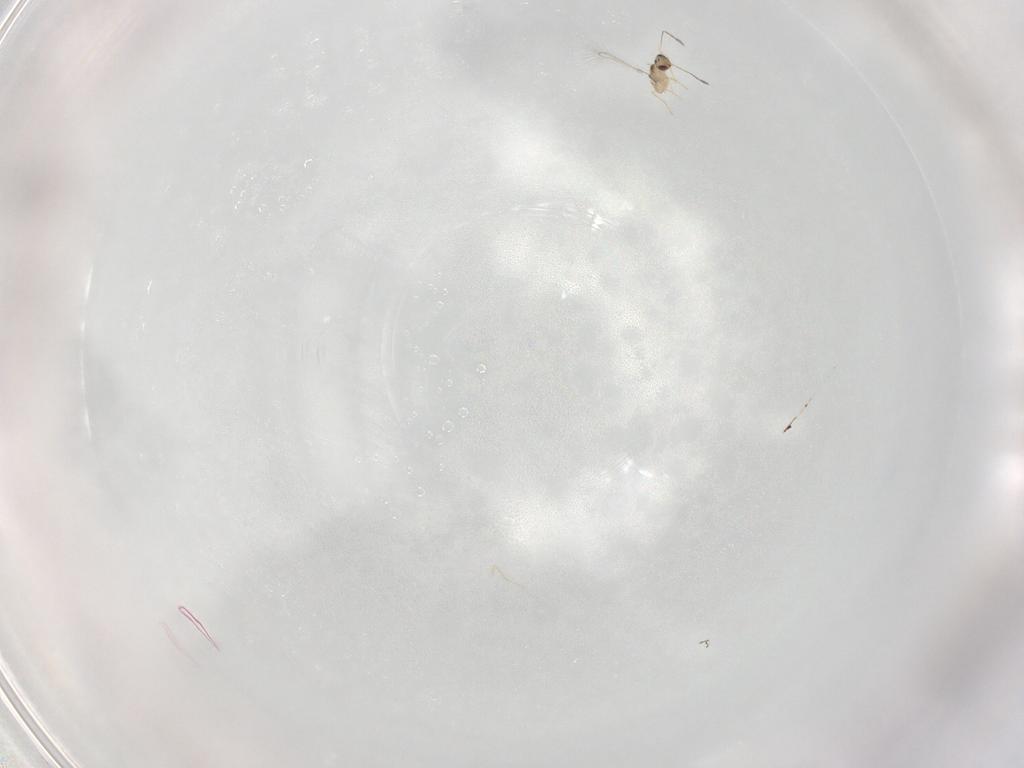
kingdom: Animalia
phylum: Arthropoda
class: Insecta
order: Hymenoptera
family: Mymaridae
